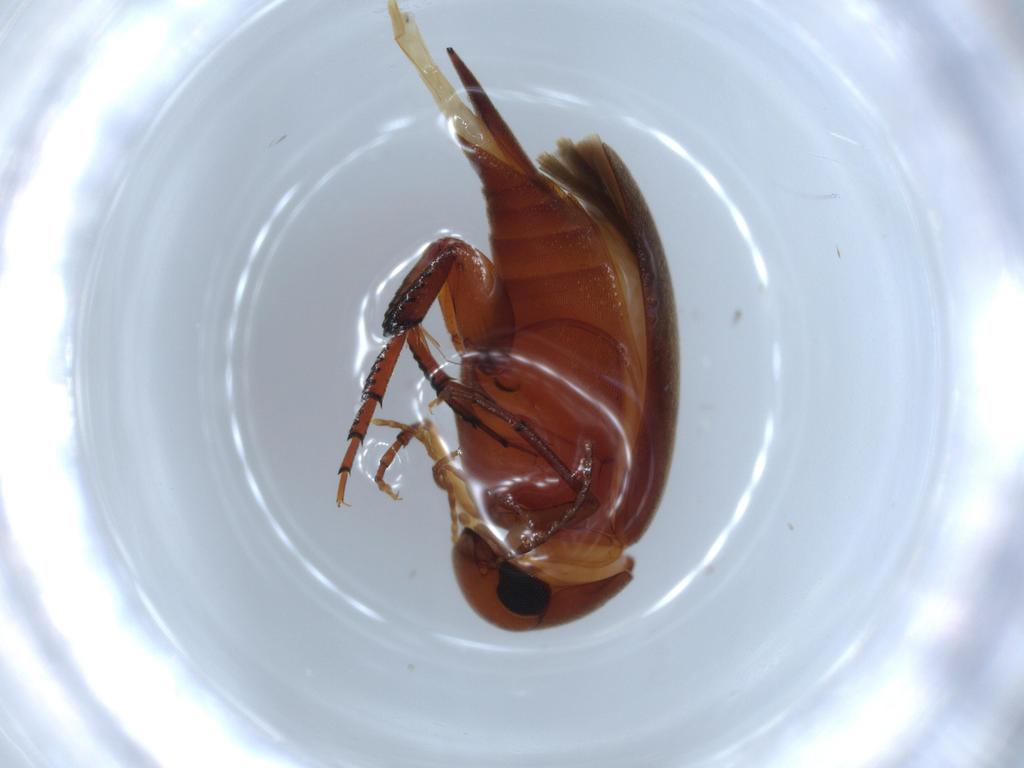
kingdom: Animalia
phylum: Arthropoda
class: Insecta
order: Coleoptera
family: Mordellidae
